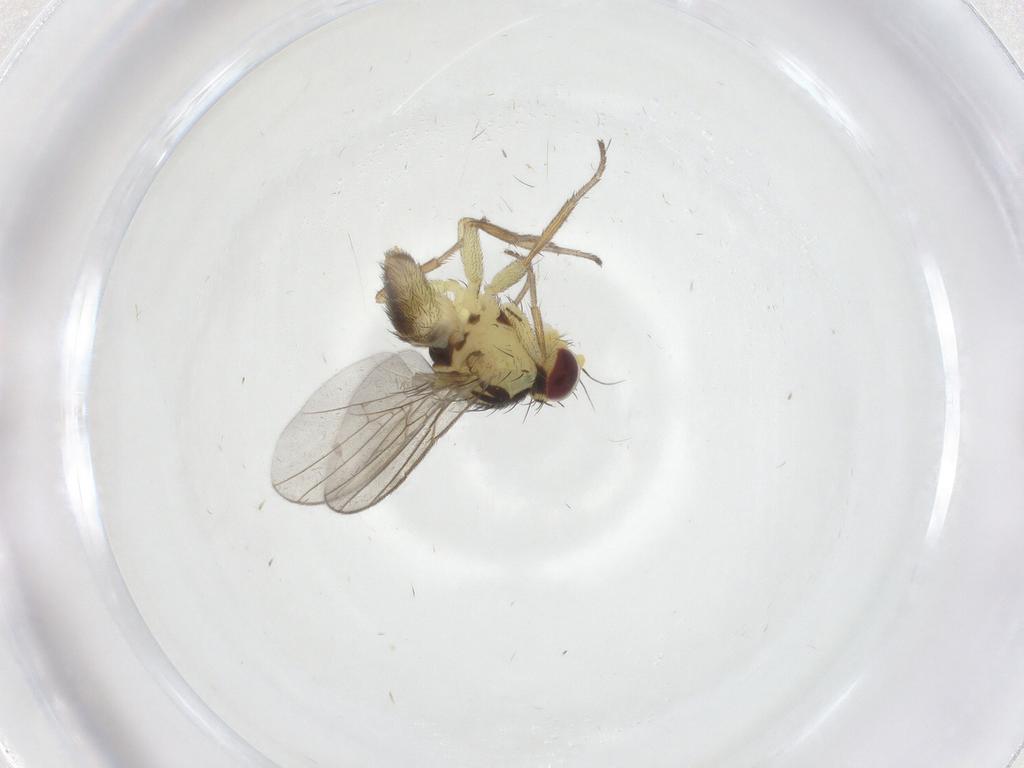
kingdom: Animalia
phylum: Arthropoda
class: Insecta
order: Diptera
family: Agromyzidae
